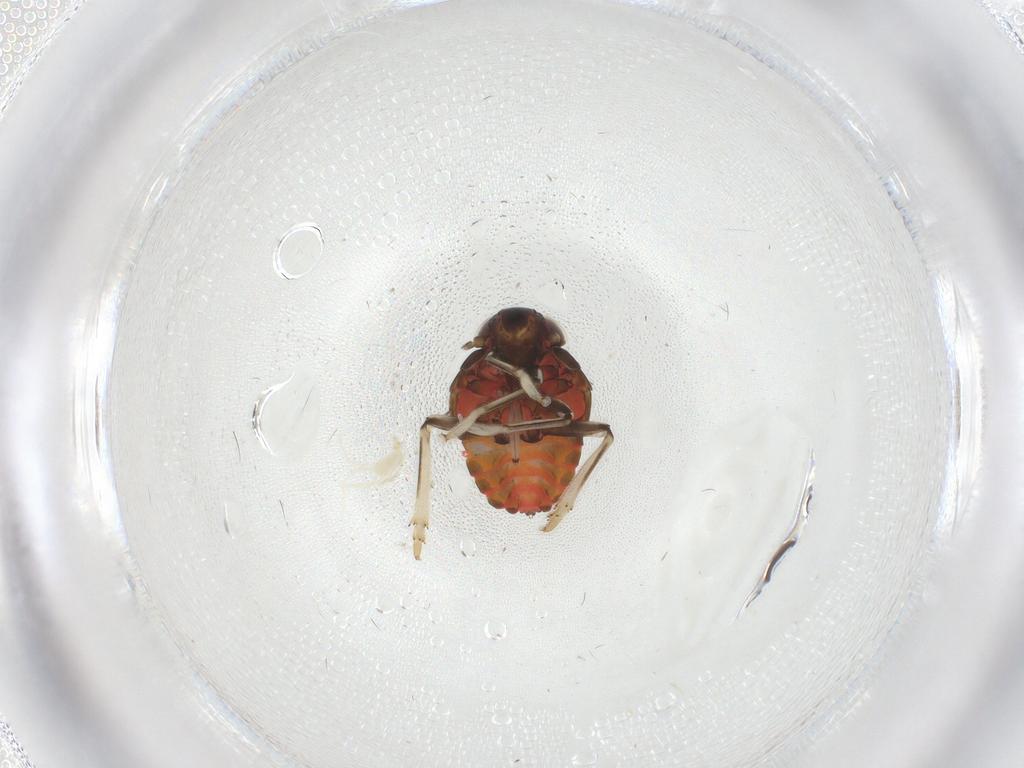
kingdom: Animalia
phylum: Arthropoda
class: Insecta
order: Hemiptera
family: Issidae
